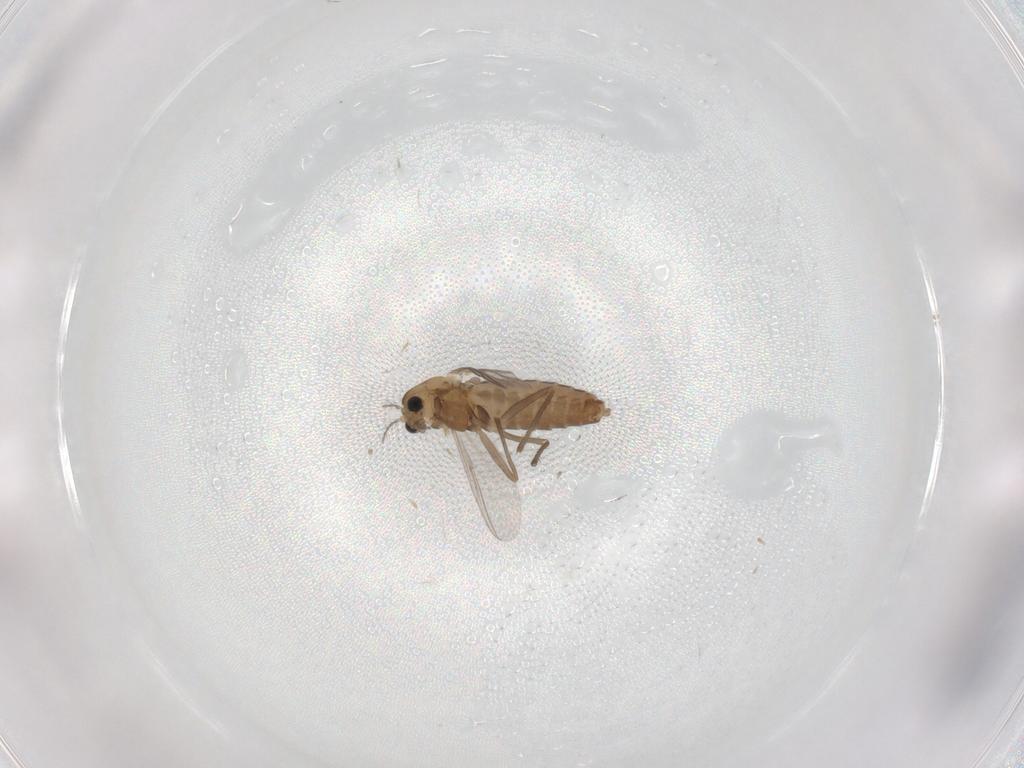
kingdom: Animalia
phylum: Arthropoda
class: Insecta
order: Diptera
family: Chironomidae
